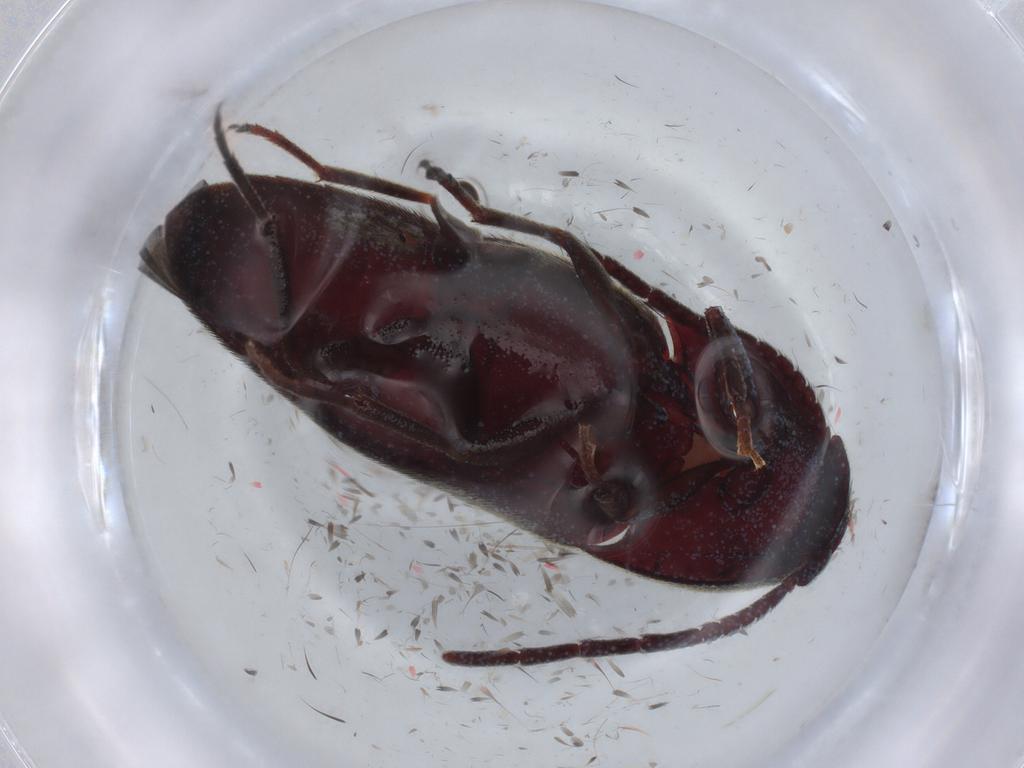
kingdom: Animalia
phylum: Arthropoda
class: Insecta
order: Coleoptera
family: Eucnemidae
